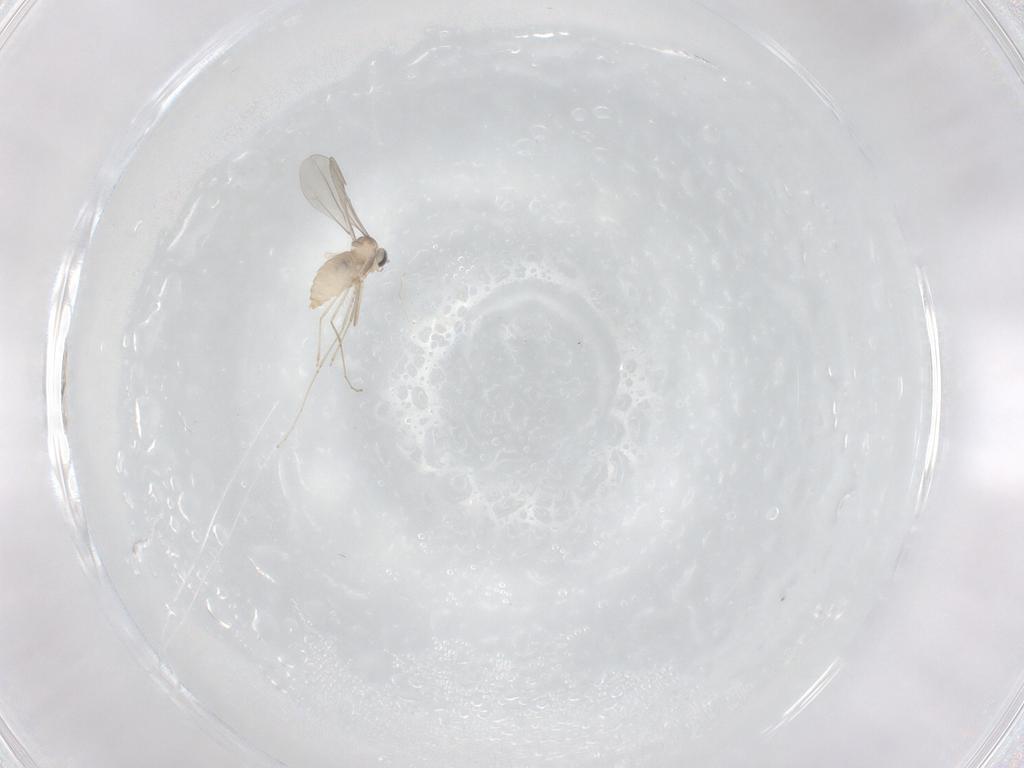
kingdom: Animalia
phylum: Arthropoda
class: Insecta
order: Diptera
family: Cecidomyiidae
